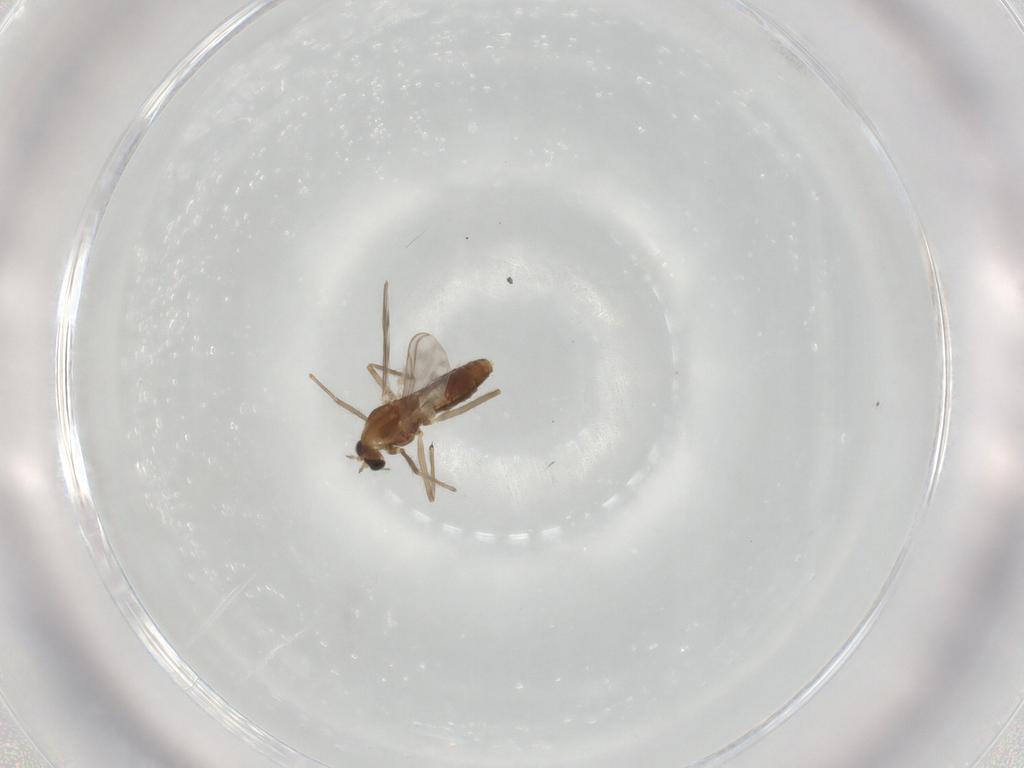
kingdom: Animalia
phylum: Arthropoda
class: Insecta
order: Diptera
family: Chironomidae
